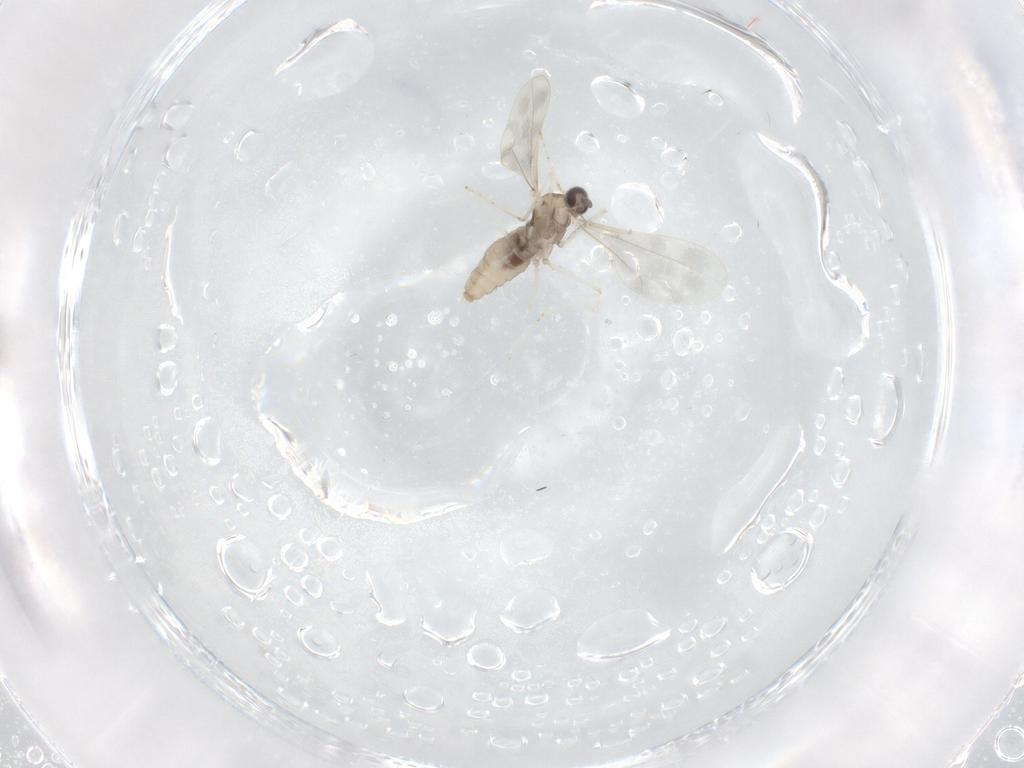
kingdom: Animalia
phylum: Arthropoda
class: Insecta
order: Diptera
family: Cecidomyiidae
